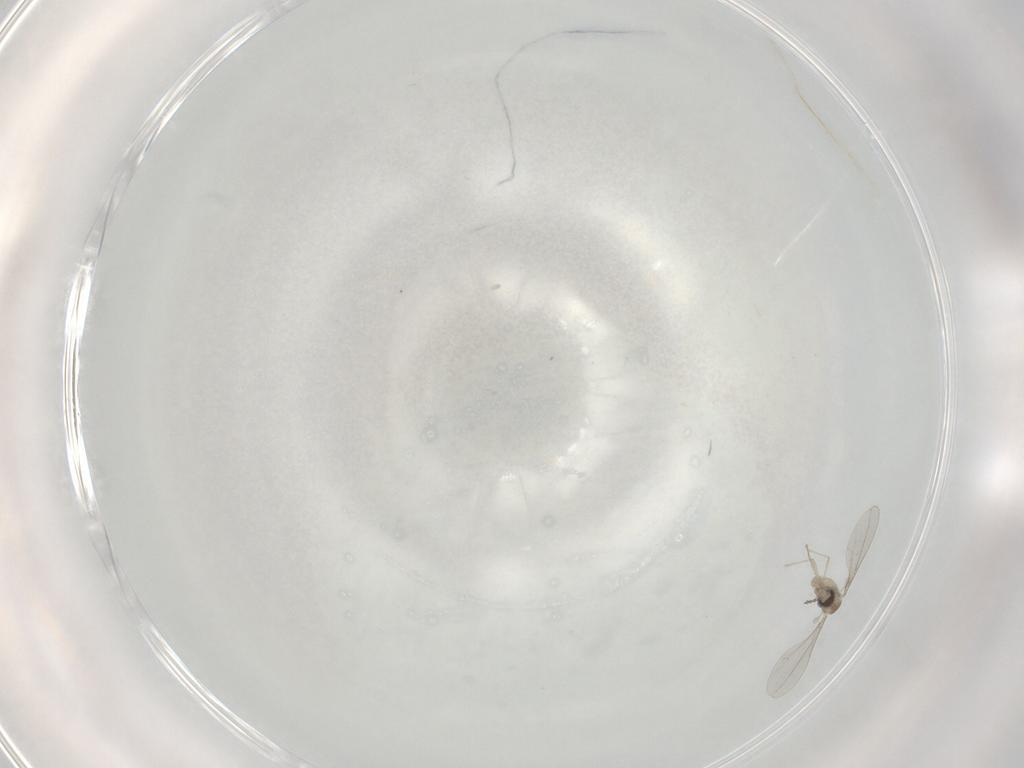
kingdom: Animalia
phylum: Arthropoda
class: Insecta
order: Diptera
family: Cecidomyiidae
